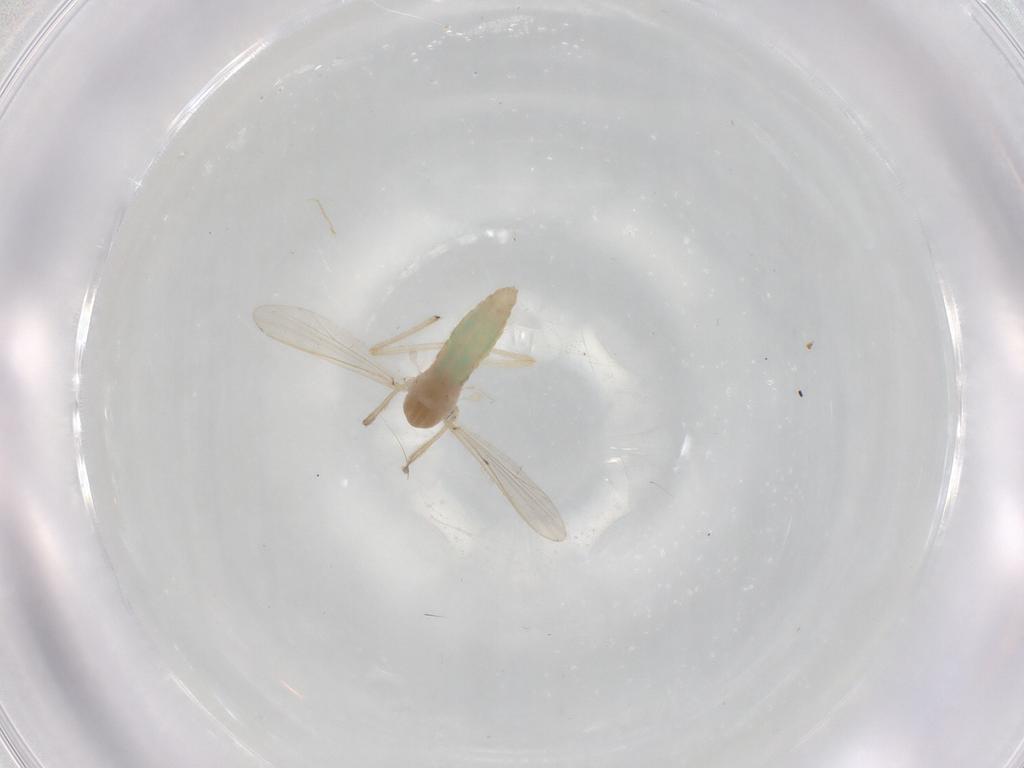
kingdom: Animalia
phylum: Arthropoda
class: Insecta
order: Diptera
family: Chironomidae
